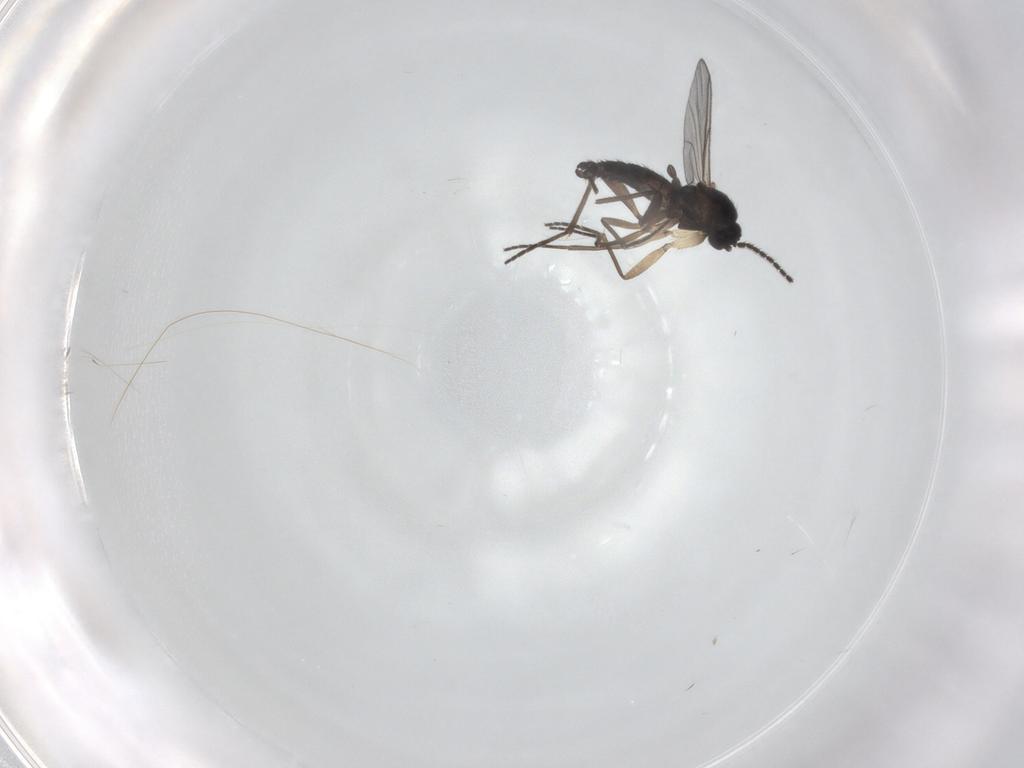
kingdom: Animalia
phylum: Arthropoda
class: Insecta
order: Diptera
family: Sciaridae
